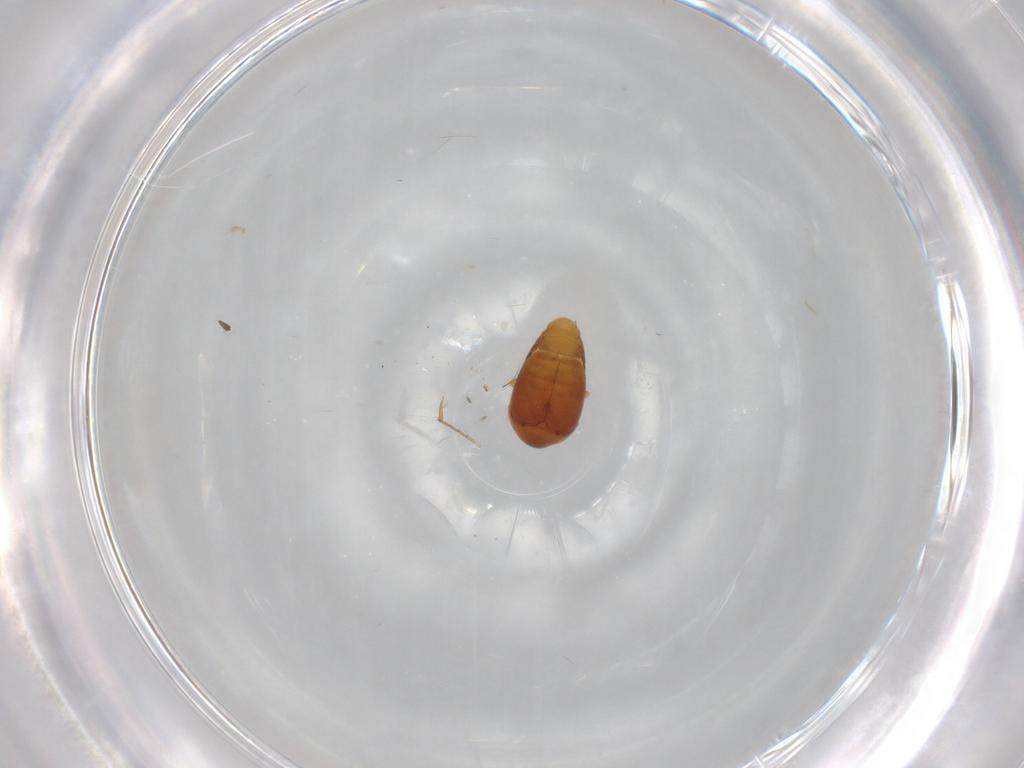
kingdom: Animalia
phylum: Arthropoda
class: Insecta
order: Coleoptera
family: Corylophidae
